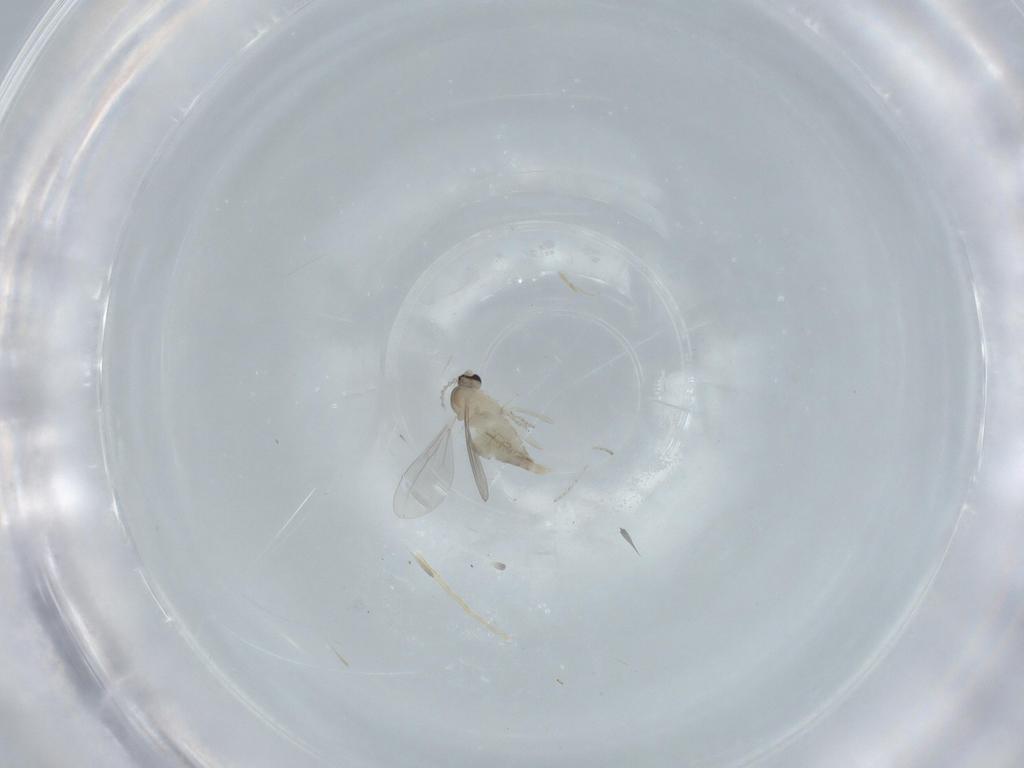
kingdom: Animalia
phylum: Arthropoda
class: Insecta
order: Diptera
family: Cecidomyiidae
